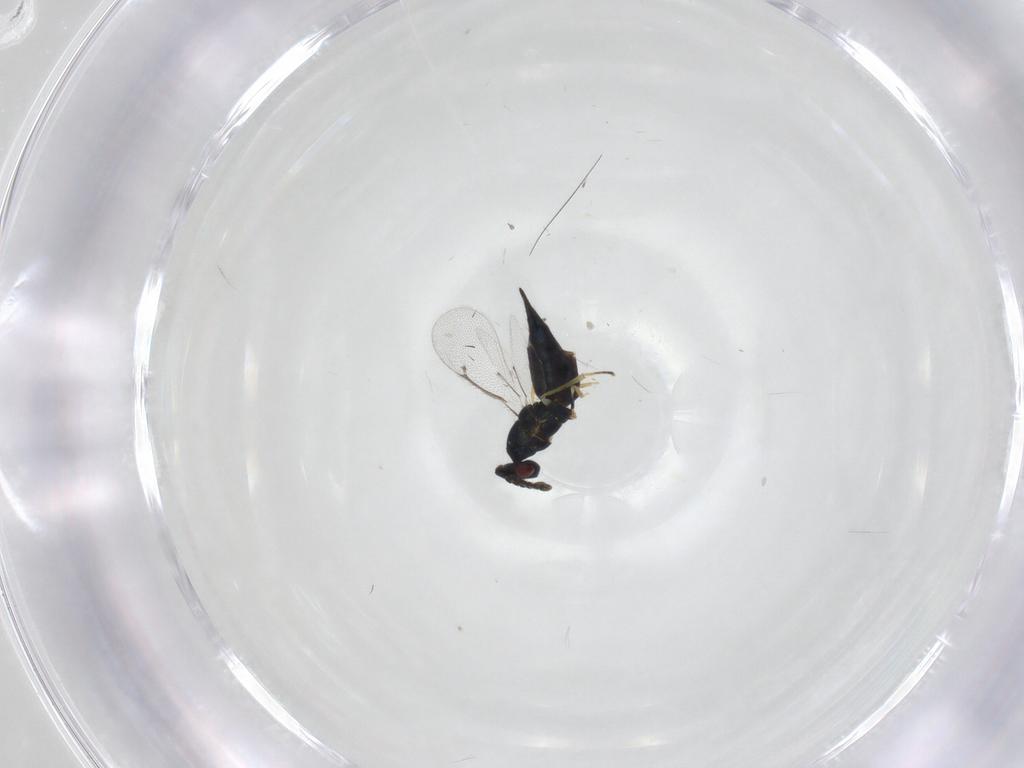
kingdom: Animalia
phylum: Arthropoda
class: Insecta
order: Hymenoptera
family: Eulophidae
